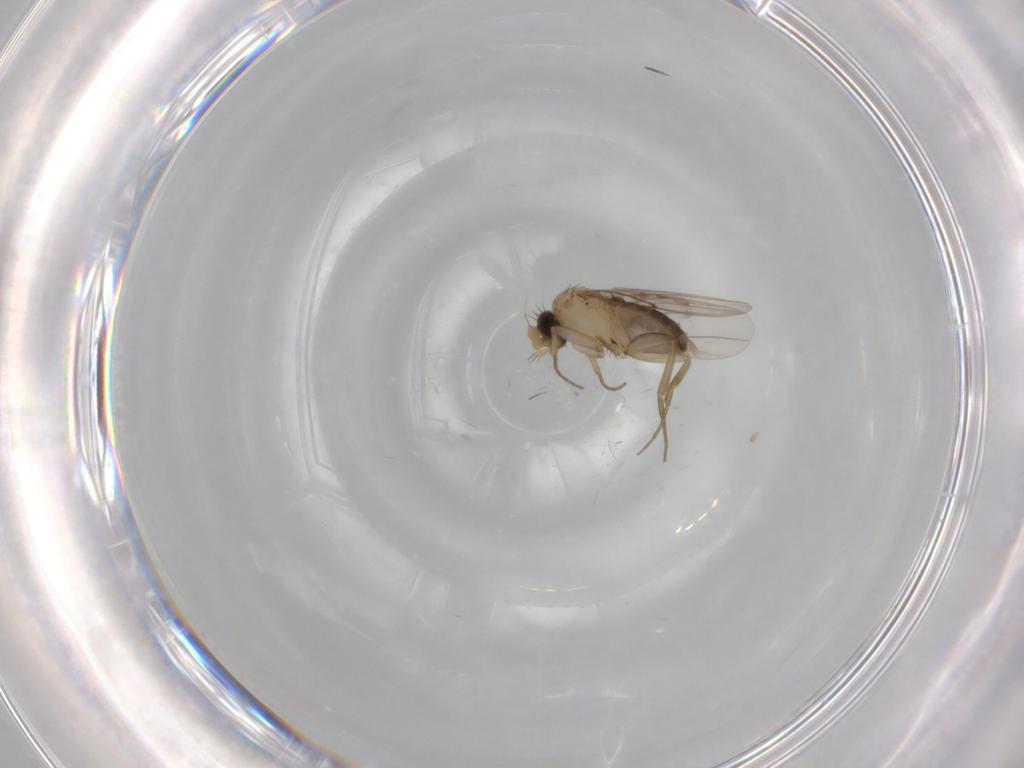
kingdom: Animalia
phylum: Arthropoda
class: Insecta
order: Diptera
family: Phoridae
